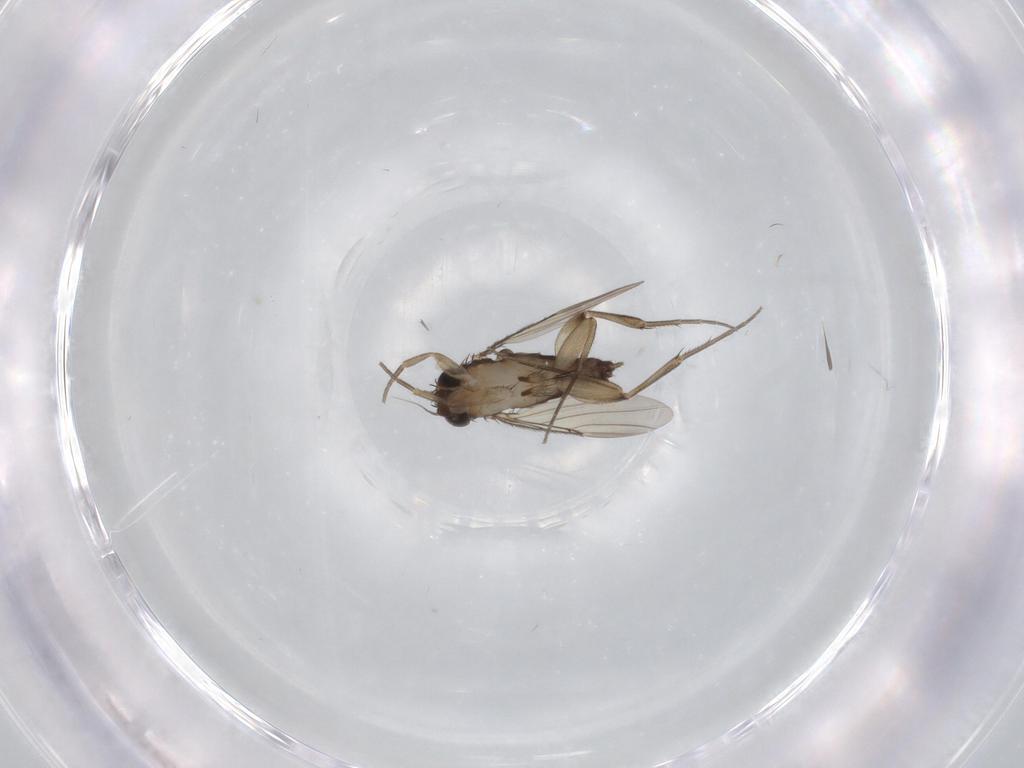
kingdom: Animalia
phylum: Arthropoda
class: Insecta
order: Diptera
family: Phoridae
